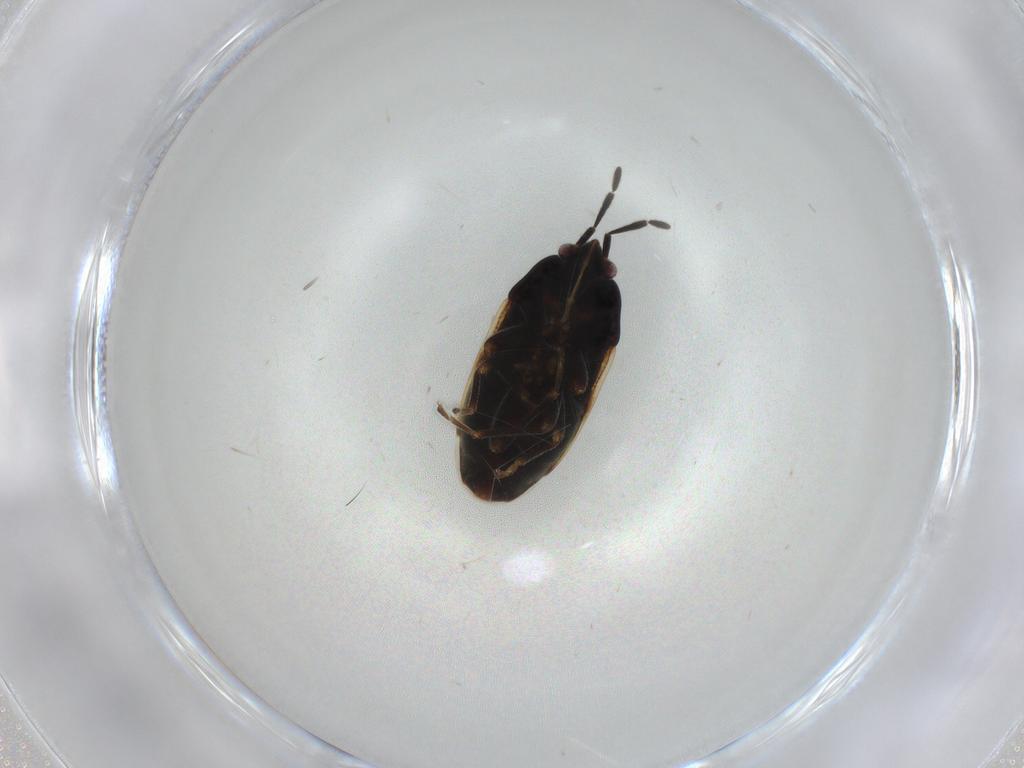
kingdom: Animalia
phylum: Arthropoda
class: Insecta
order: Hemiptera
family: Rhyparochromidae
